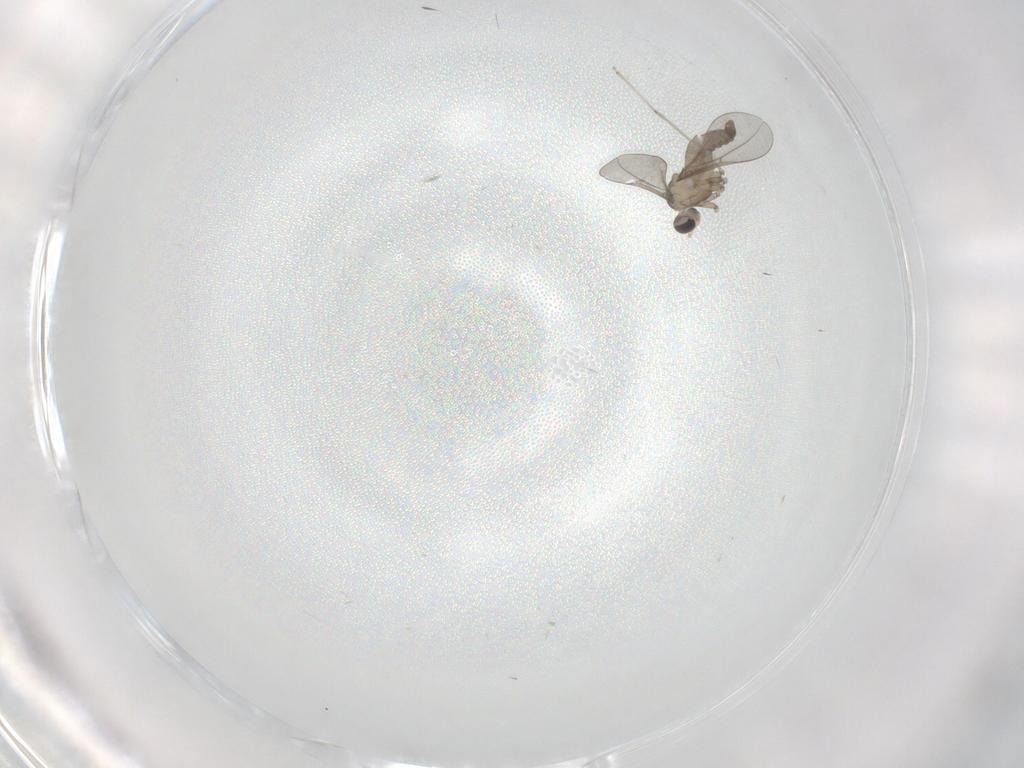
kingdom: Animalia
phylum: Arthropoda
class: Insecta
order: Diptera
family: Cecidomyiidae
